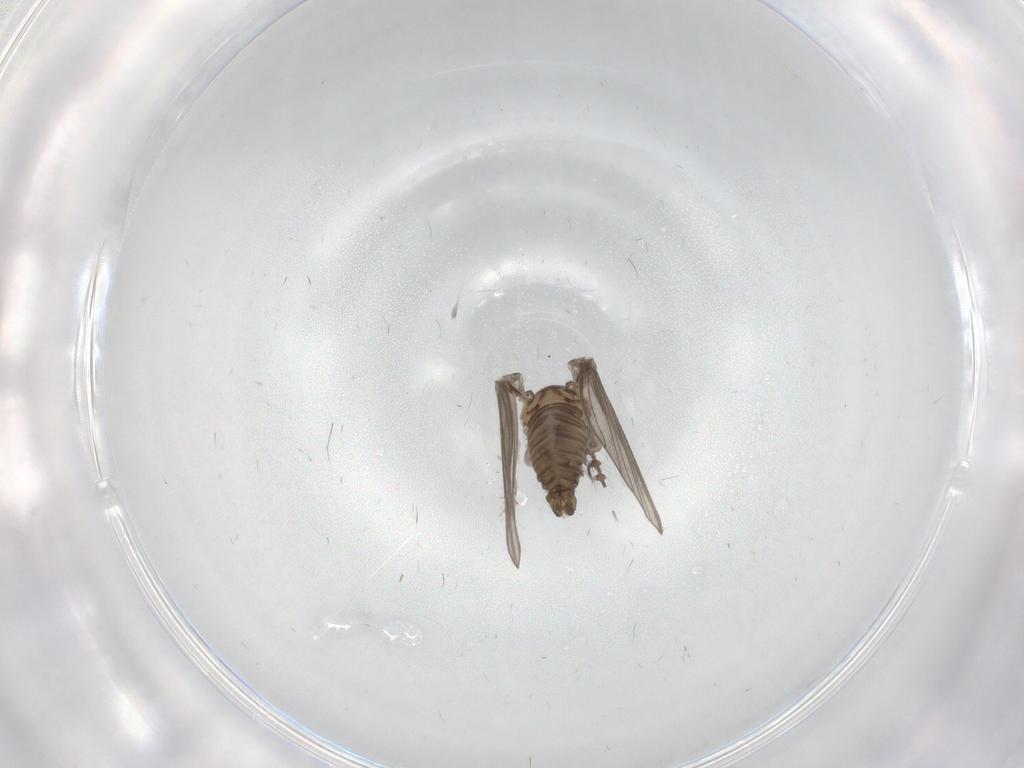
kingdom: Animalia
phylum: Arthropoda
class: Insecta
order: Diptera
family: Psychodidae
